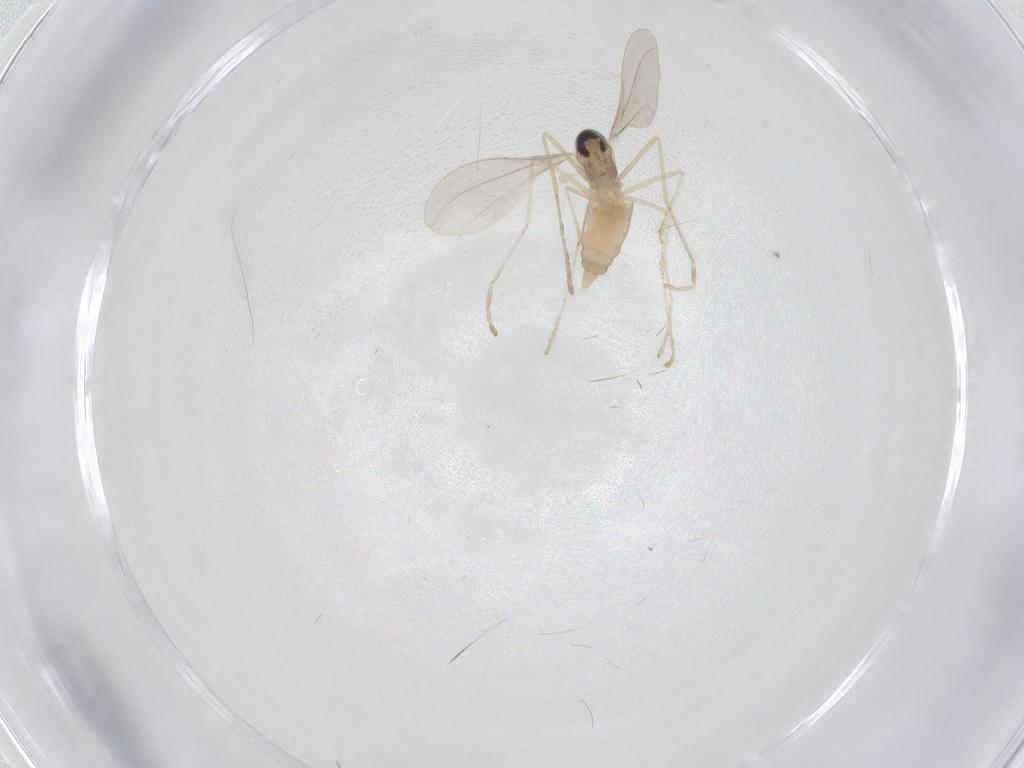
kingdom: Animalia
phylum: Arthropoda
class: Insecta
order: Diptera
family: Cecidomyiidae
